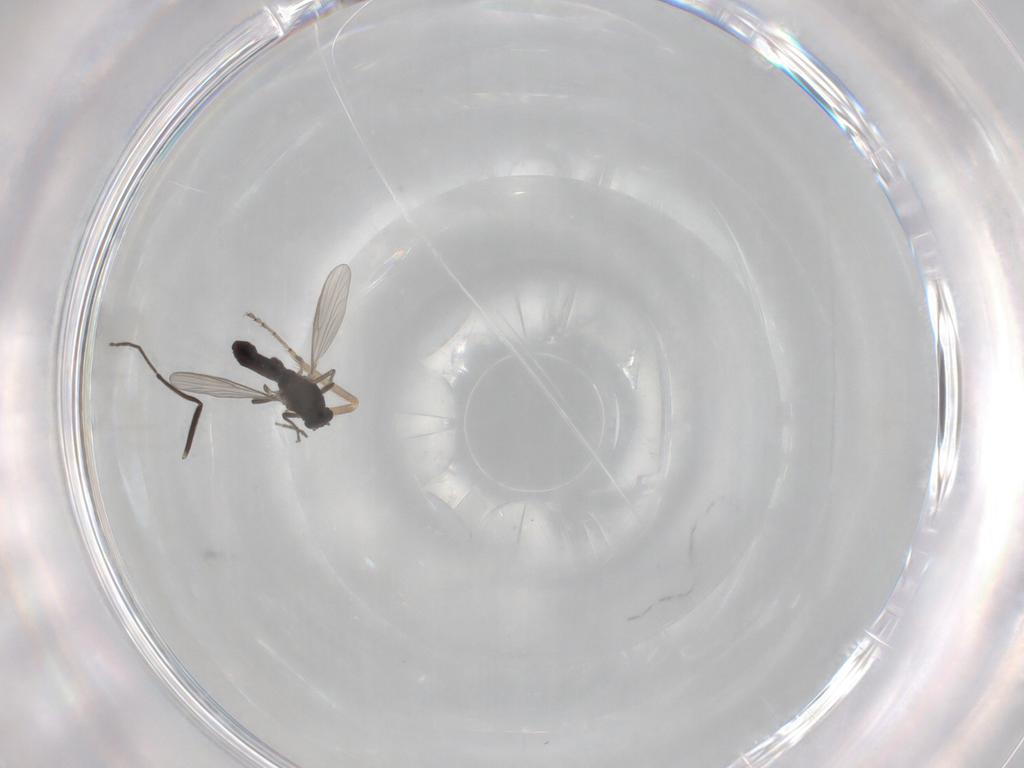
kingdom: Animalia
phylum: Arthropoda
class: Insecta
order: Diptera
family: Ceratopogonidae
